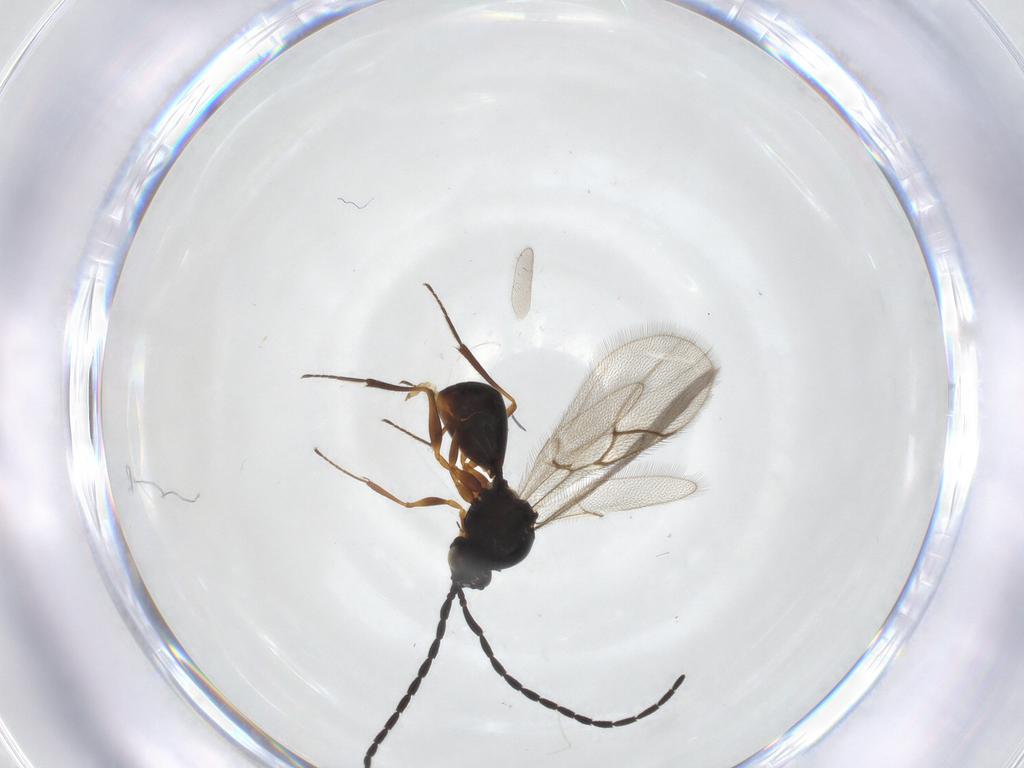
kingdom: Animalia
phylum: Arthropoda
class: Insecta
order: Hymenoptera
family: Figitidae
